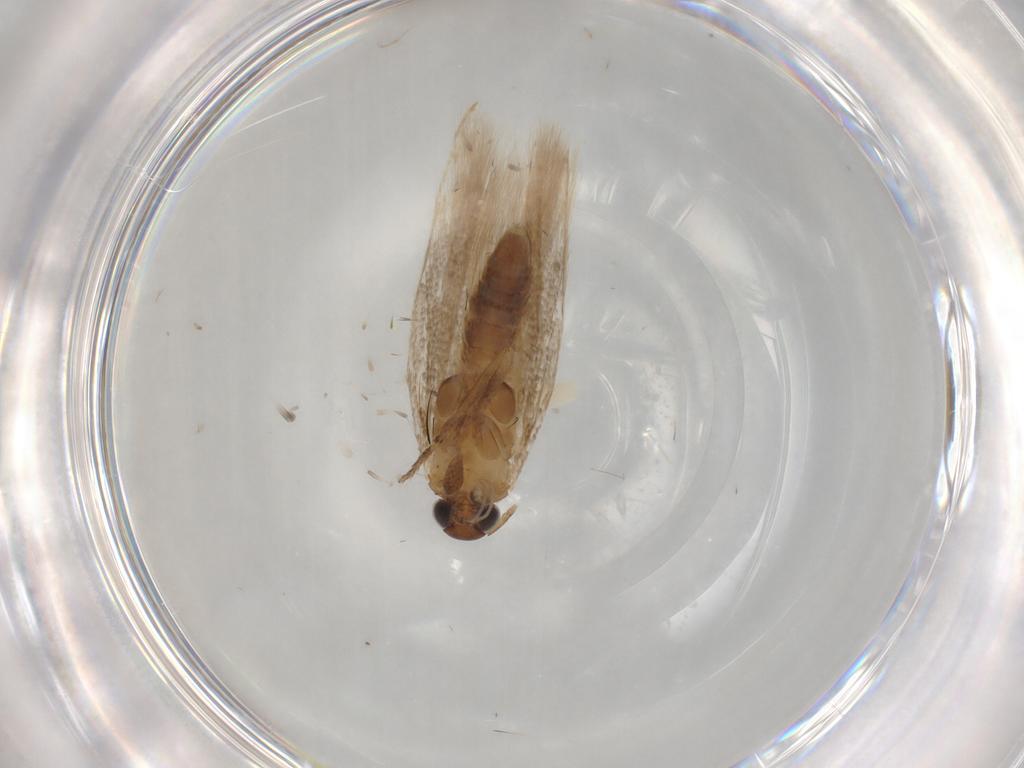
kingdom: Animalia
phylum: Arthropoda
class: Insecta
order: Lepidoptera
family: Gelechiidae
